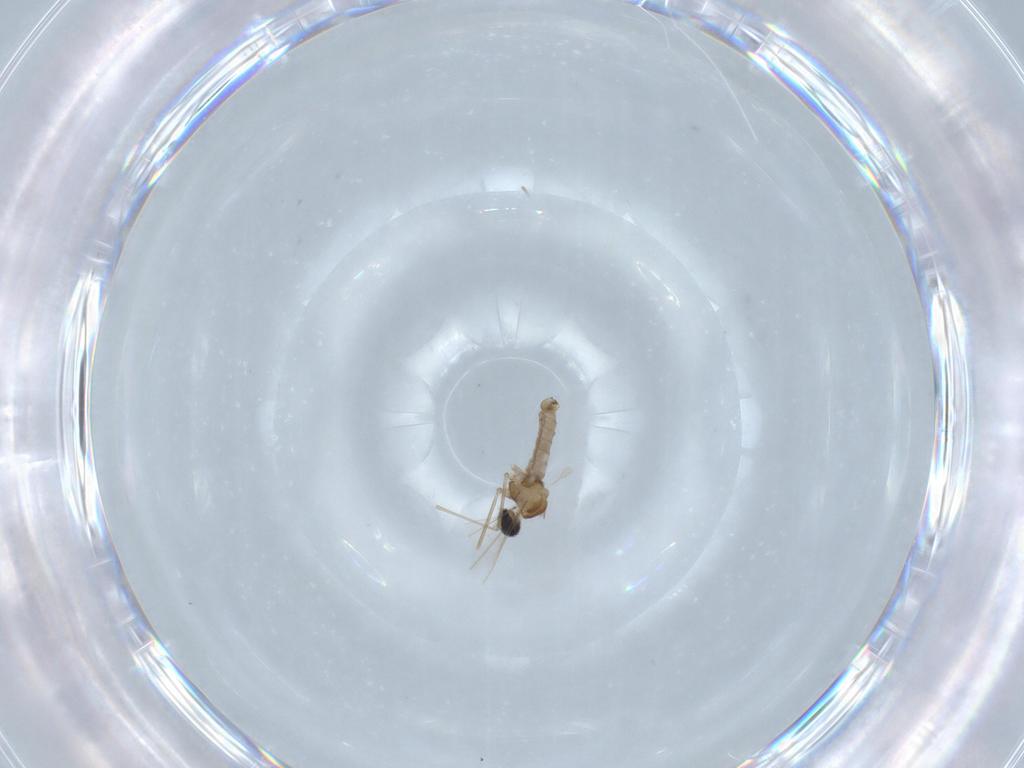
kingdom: Animalia
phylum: Arthropoda
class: Insecta
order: Diptera
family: Cecidomyiidae
